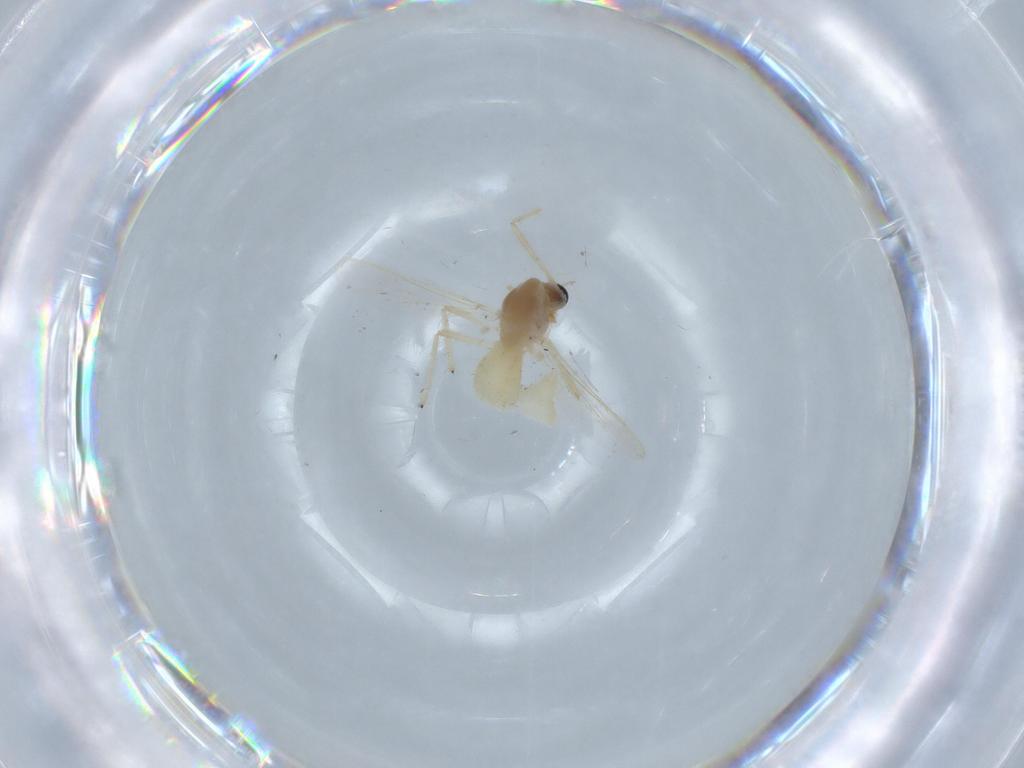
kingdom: Animalia
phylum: Arthropoda
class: Insecta
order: Diptera
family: Chironomidae
